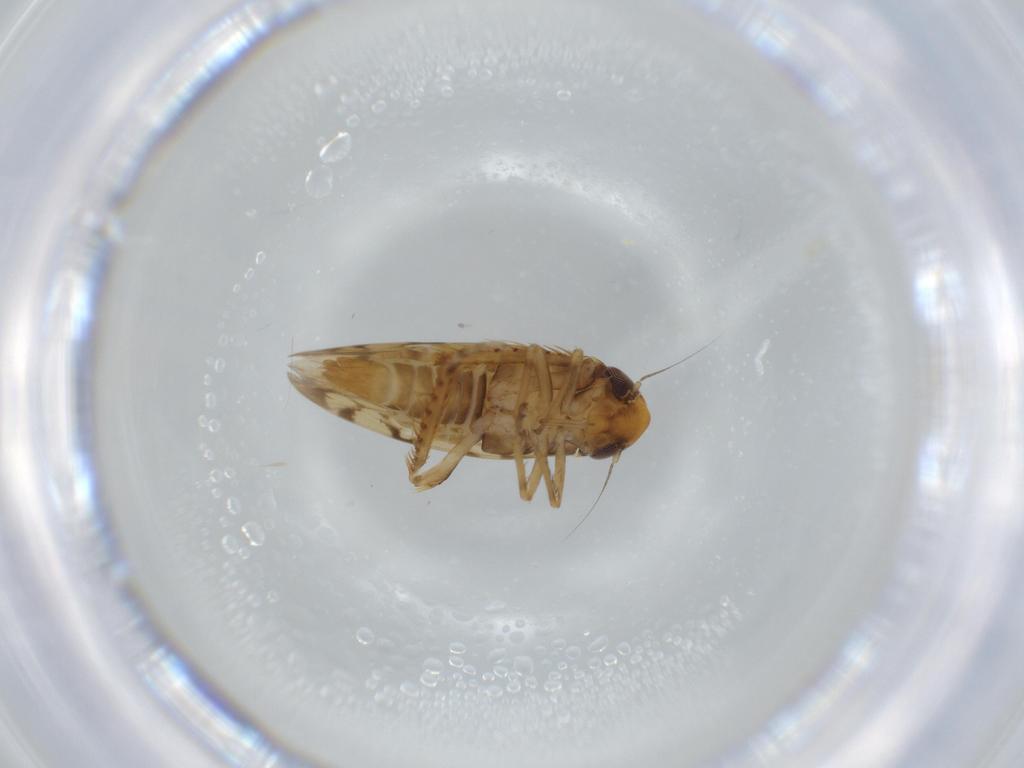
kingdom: Animalia
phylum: Arthropoda
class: Insecta
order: Hemiptera
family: Cicadellidae
